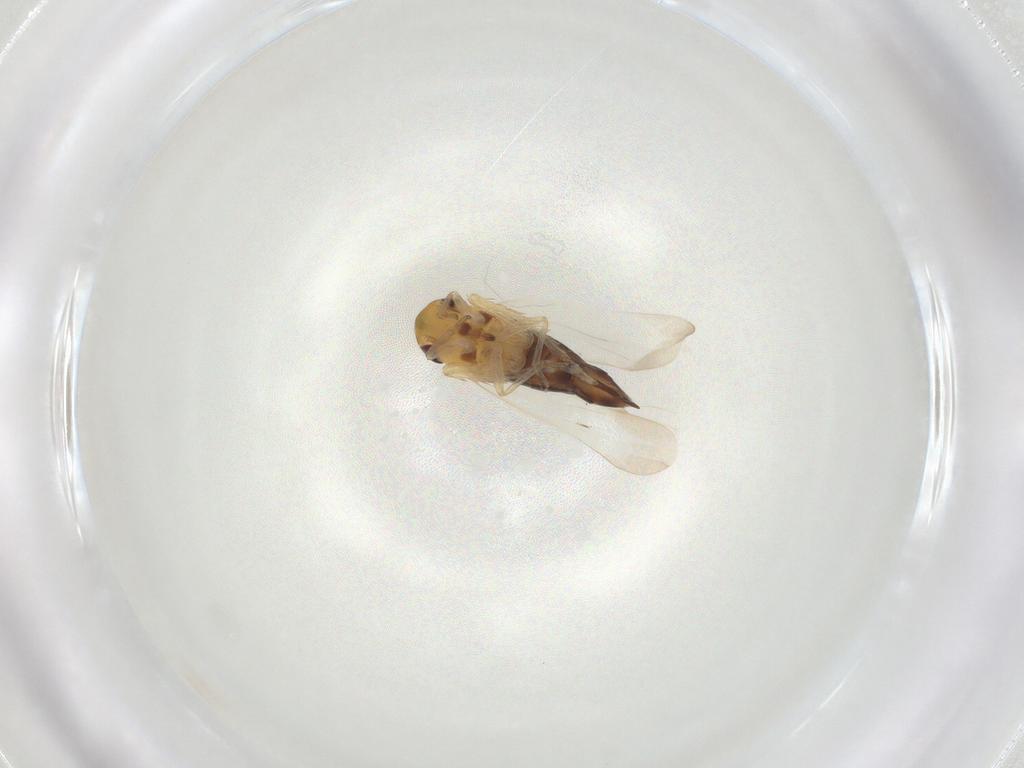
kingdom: Animalia
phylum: Arthropoda
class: Insecta
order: Hemiptera
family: Cicadellidae
